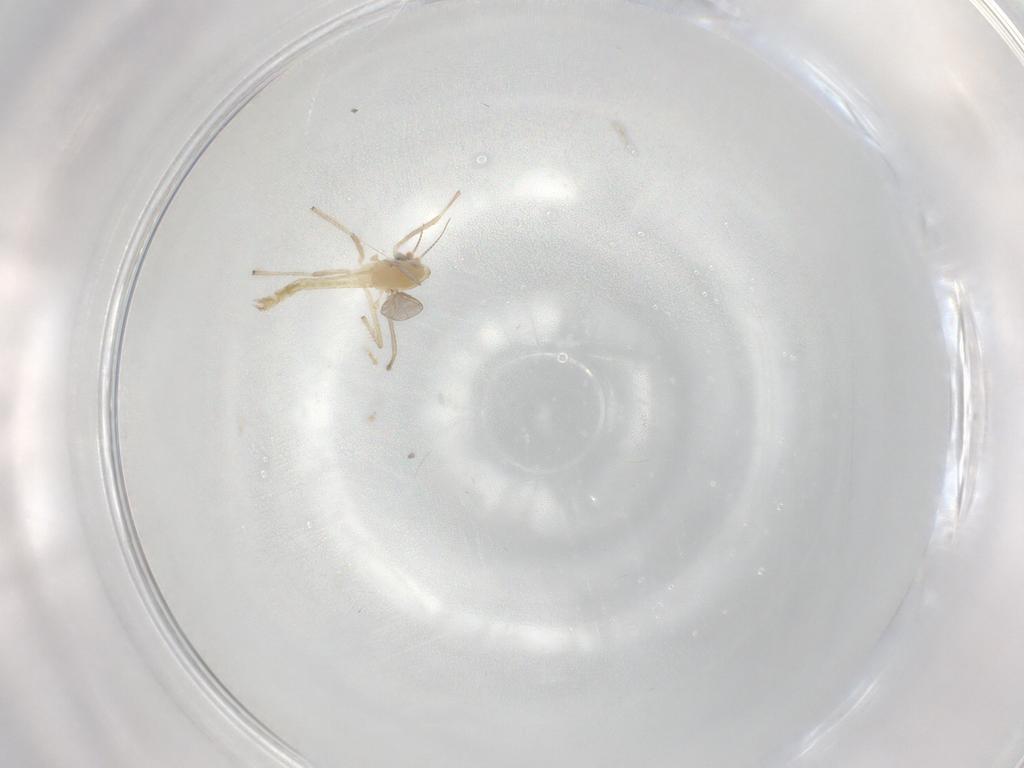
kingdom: Animalia
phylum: Arthropoda
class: Insecta
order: Diptera
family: Chironomidae
